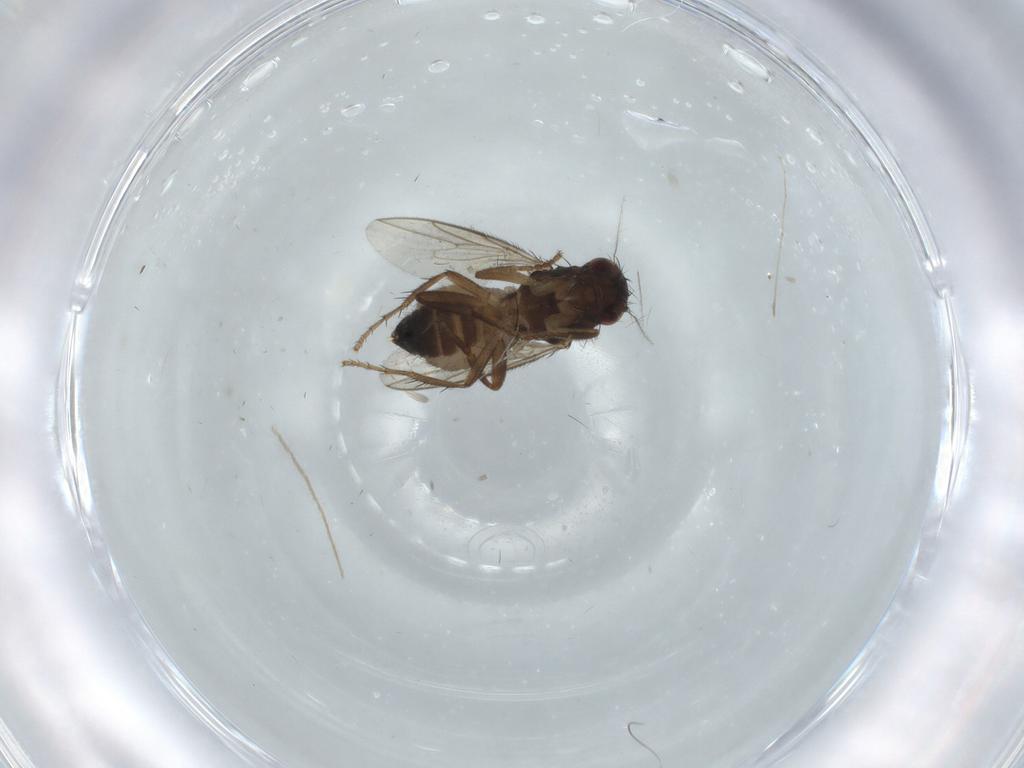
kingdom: Animalia
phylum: Arthropoda
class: Insecta
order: Diptera
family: Sphaeroceridae
